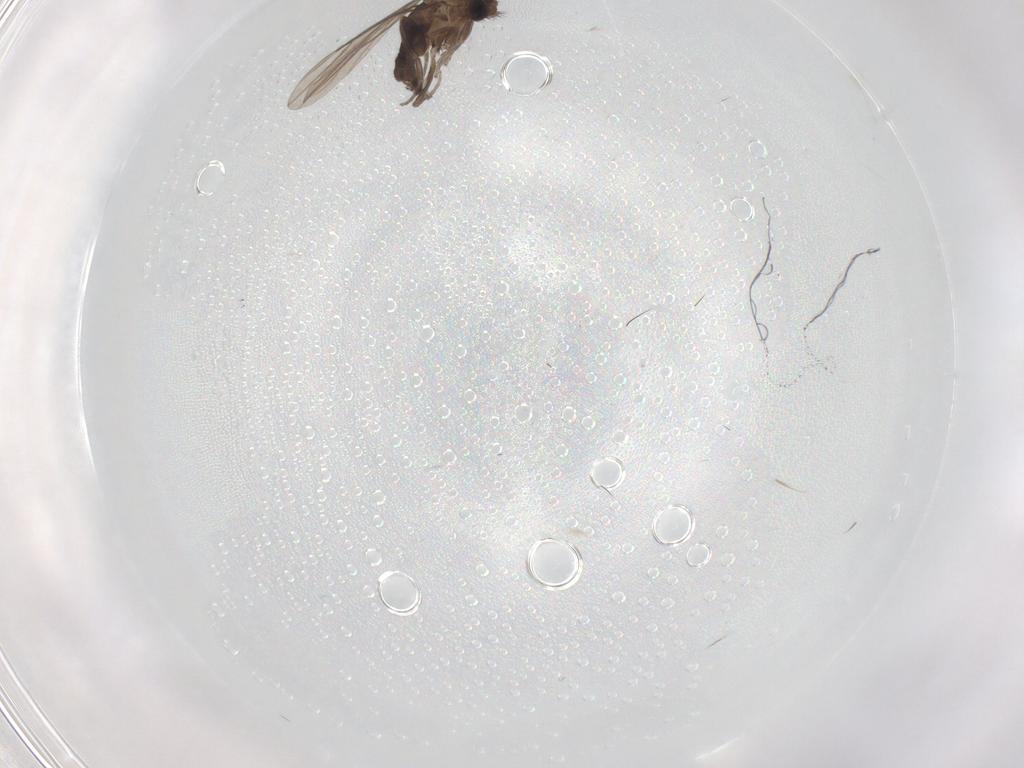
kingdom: Animalia
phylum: Arthropoda
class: Insecta
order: Diptera
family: Phoridae
